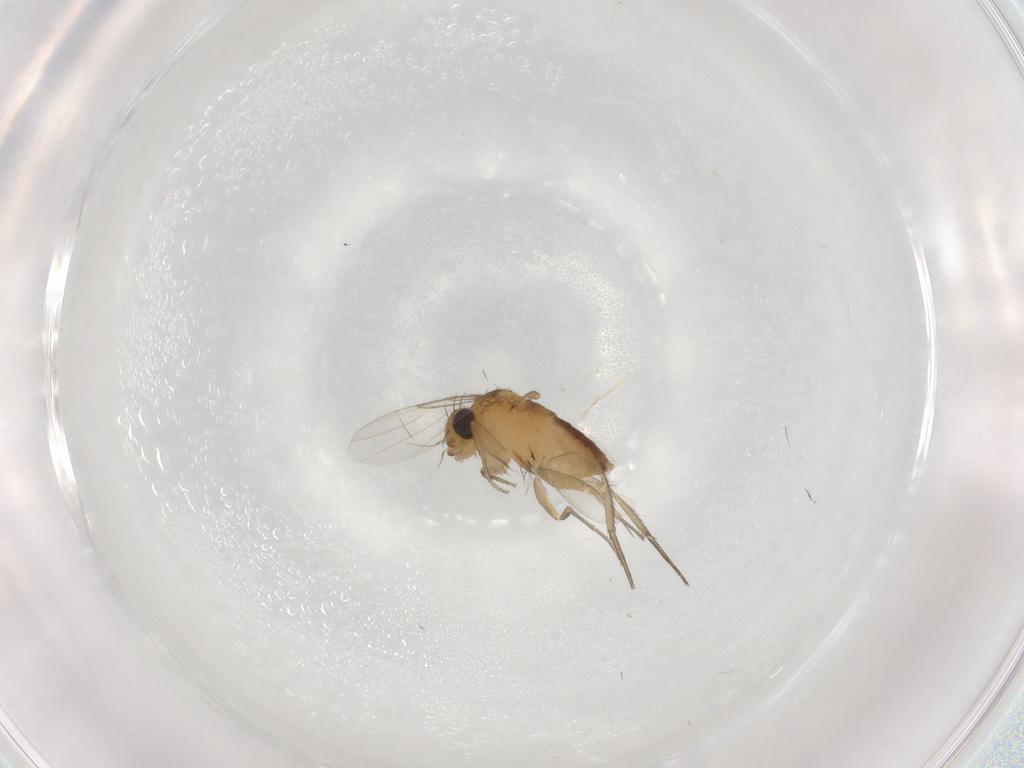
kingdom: Animalia
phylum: Arthropoda
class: Insecta
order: Diptera
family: Phoridae
